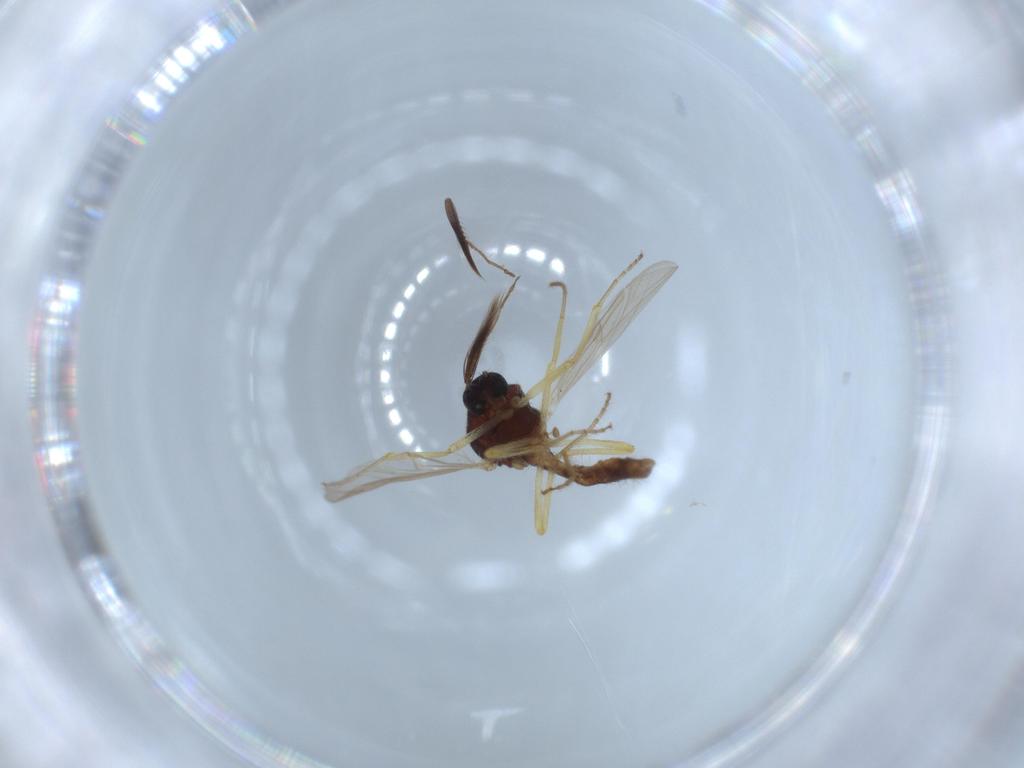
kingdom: Animalia
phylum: Arthropoda
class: Insecta
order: Diptera
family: Ceratopogonidae
